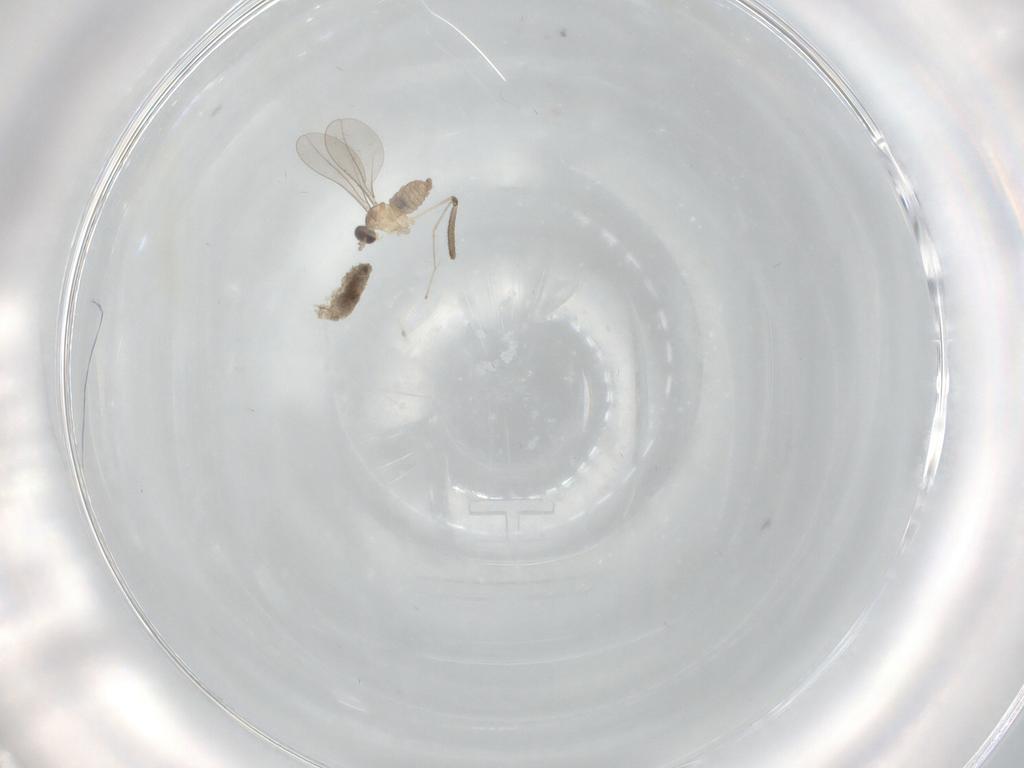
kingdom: Animalia
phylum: Arthropoda
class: Insecta
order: Diptera
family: Cecidomyiidae
